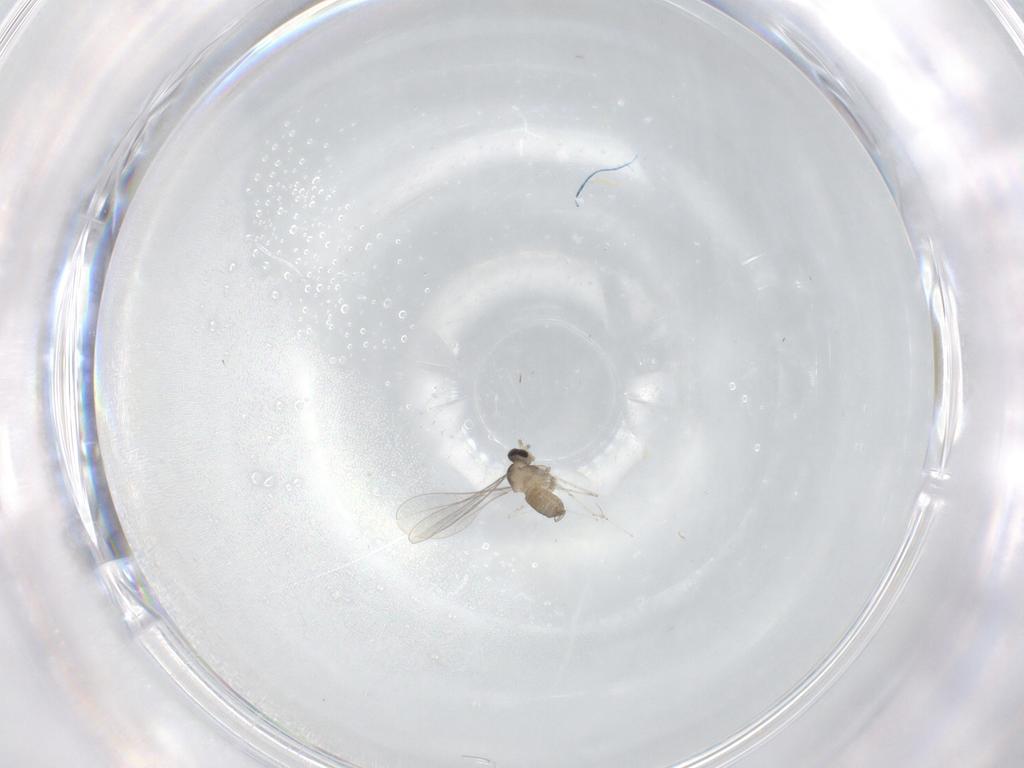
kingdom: Animalia
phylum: Arthropoda
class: Insecta
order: Diptera
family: Cecidomyiidae
